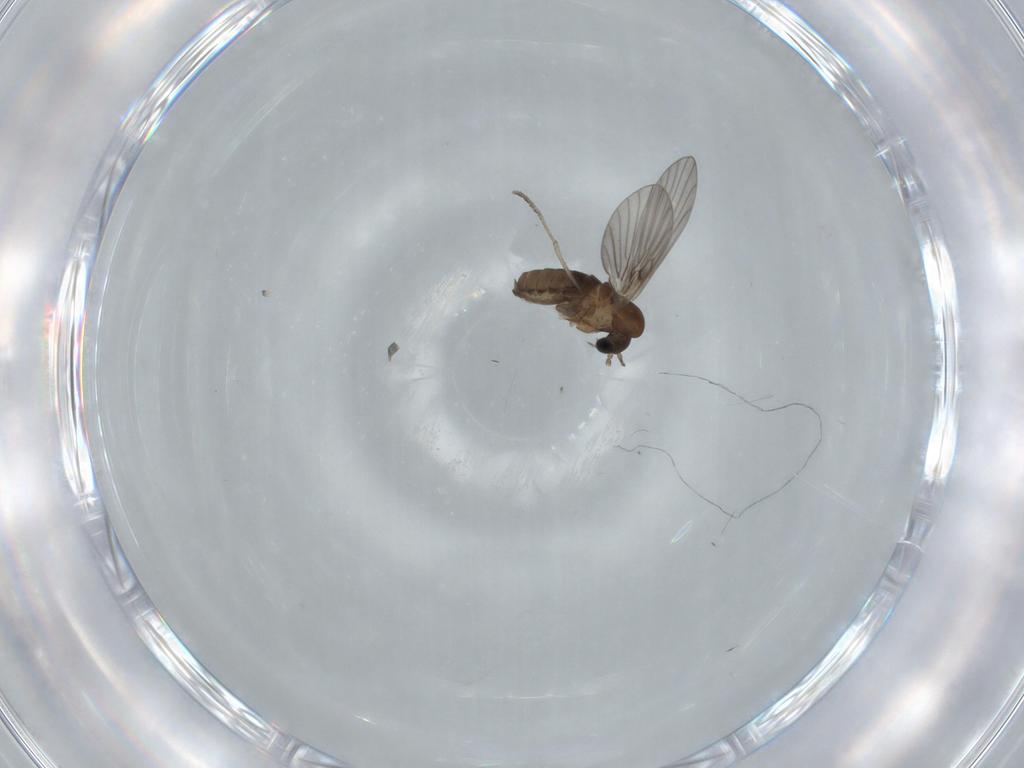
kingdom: Animalia
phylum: Arthropoda
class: Insecta
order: Diptera
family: Psychodidae
